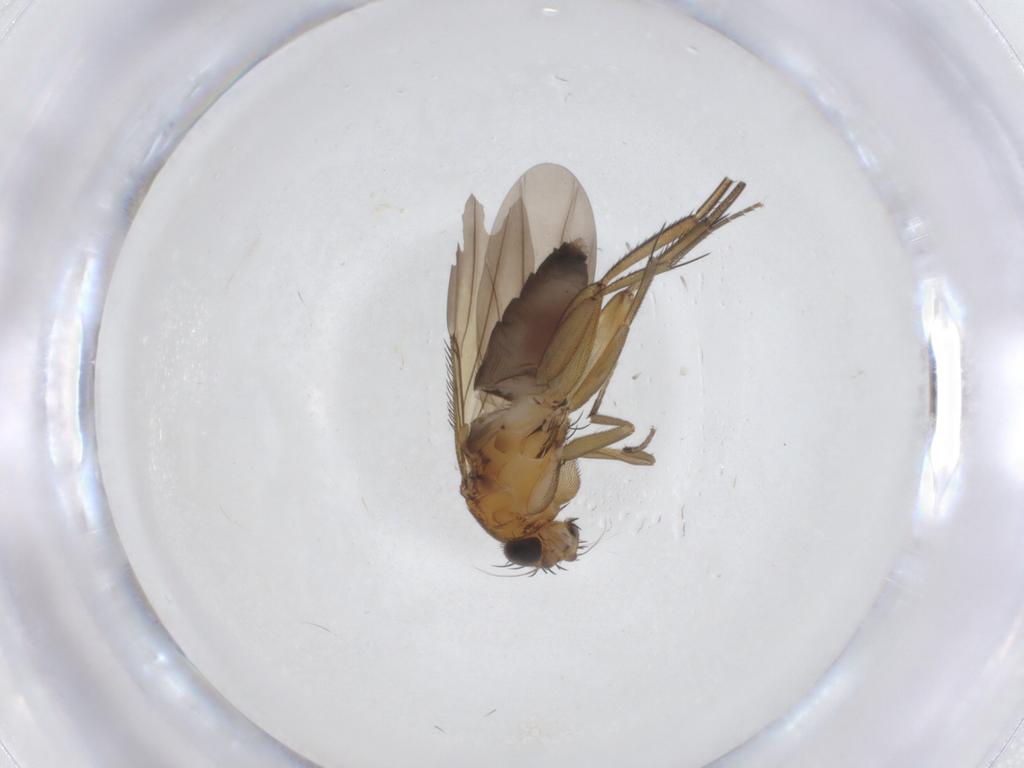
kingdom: Animalia
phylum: Arthropoda
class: Insecta
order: Diptera
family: Phoridae
